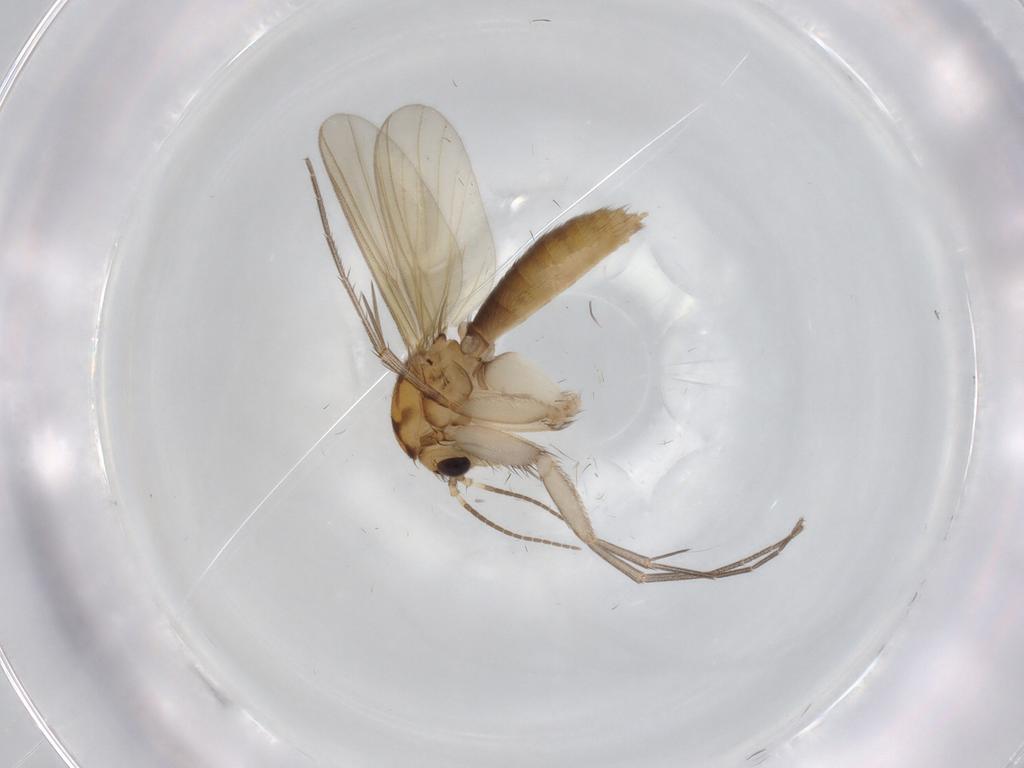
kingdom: Animalia
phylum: Arthropoda
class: Insecta
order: Diptera
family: Mycetophilidae
